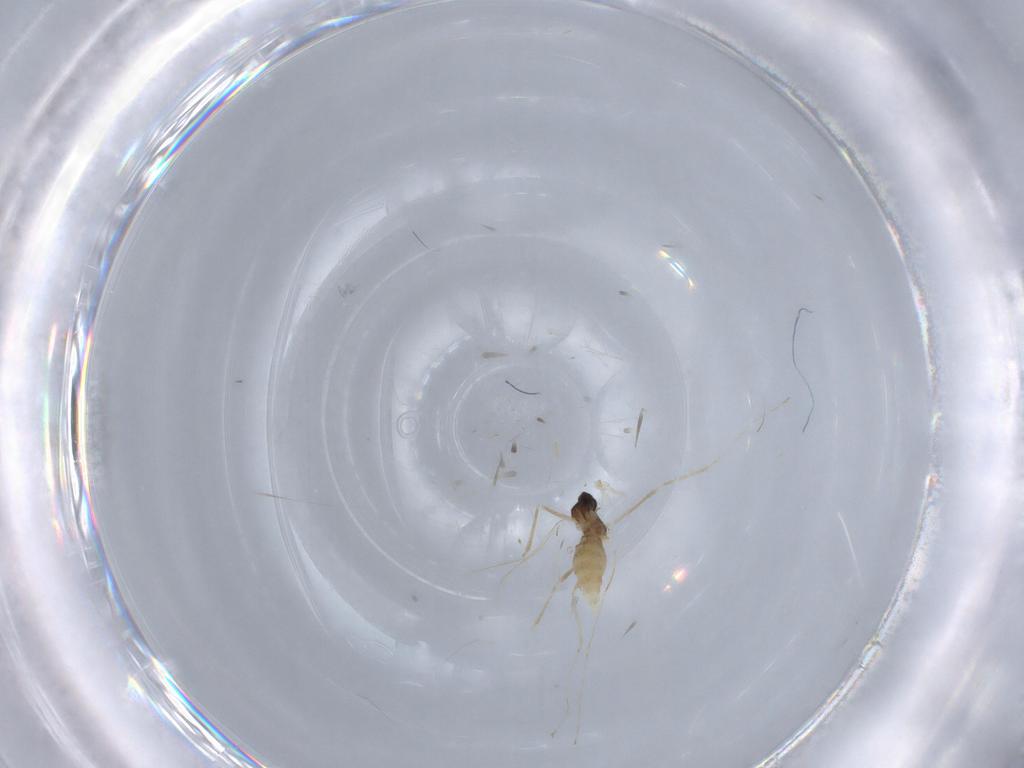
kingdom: Animalia
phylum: Arthropoda
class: Insecta
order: Diptera
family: Cecidomyiidae
